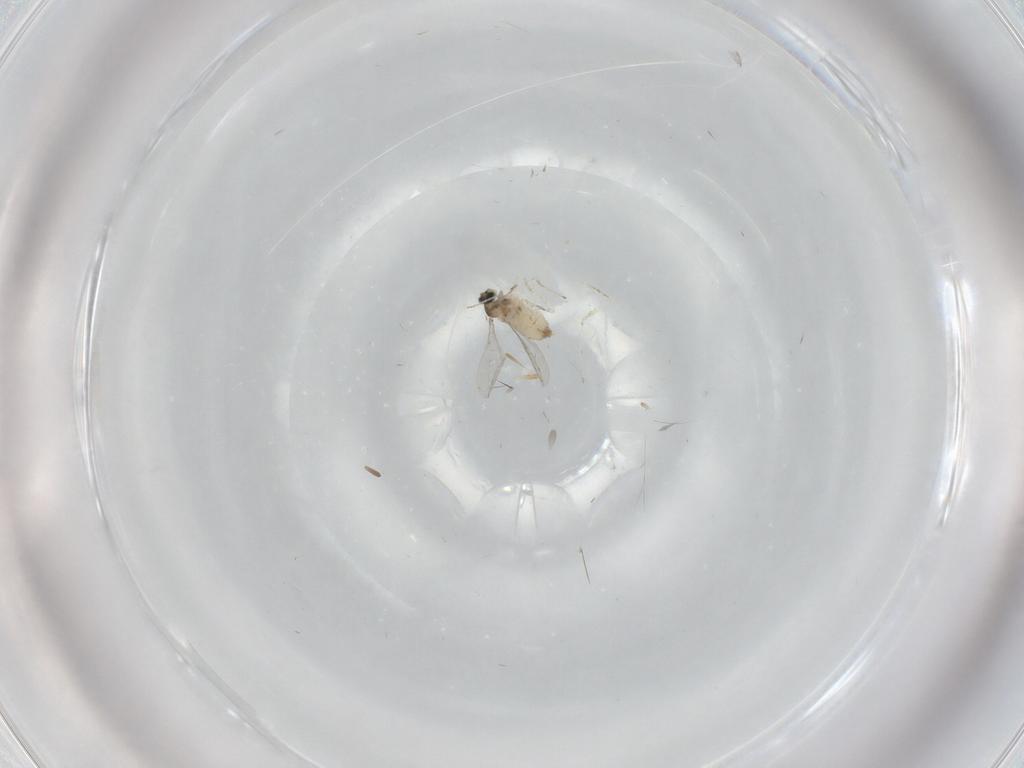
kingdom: Animalia
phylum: Arthropoda
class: Insecta
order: Diptera
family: Cecidomyiidae
